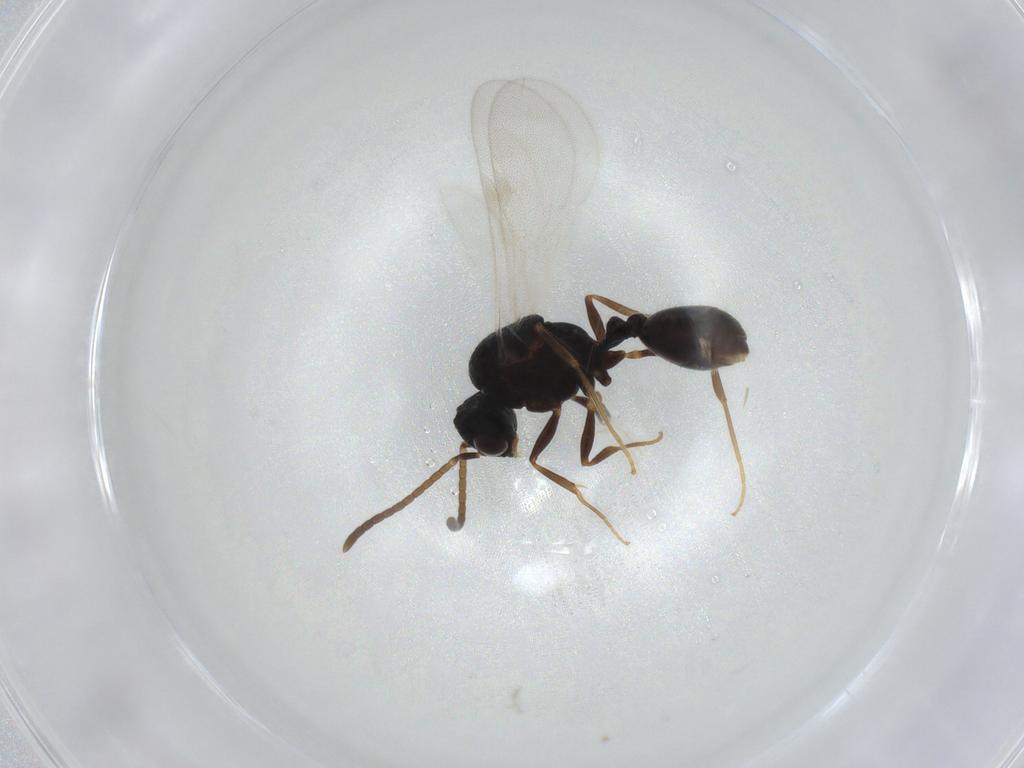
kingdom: Animalia
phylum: Arthropoda
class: Insecta
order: Hymenoptera
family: Formicidae
